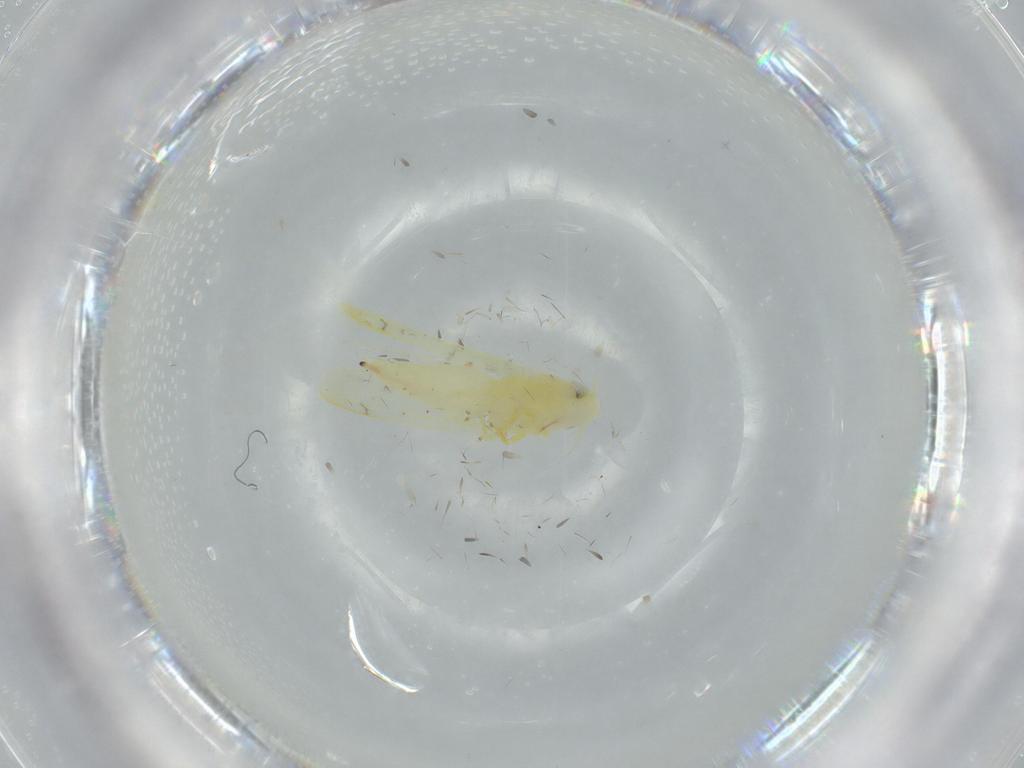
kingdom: Animalia
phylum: Arthropoda
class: Insecta
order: Hemiptera
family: Cicadellidae
